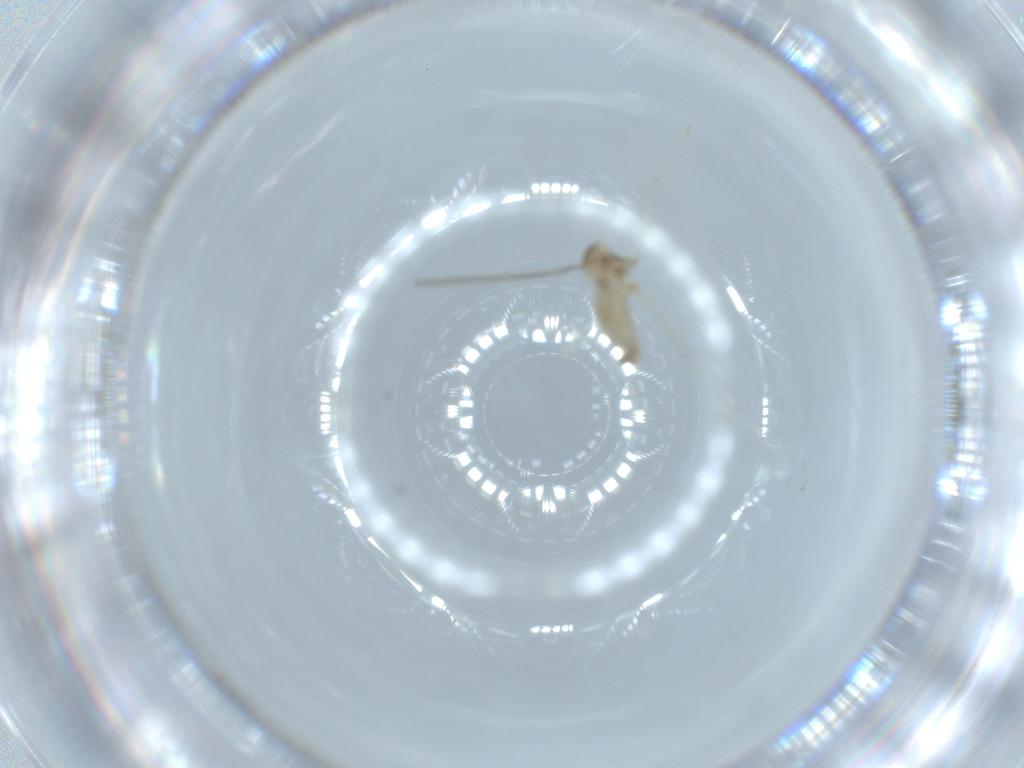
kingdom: Animalia
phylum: Arthropoda
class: Insecta
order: Diptera
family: Cecidomyiidae
